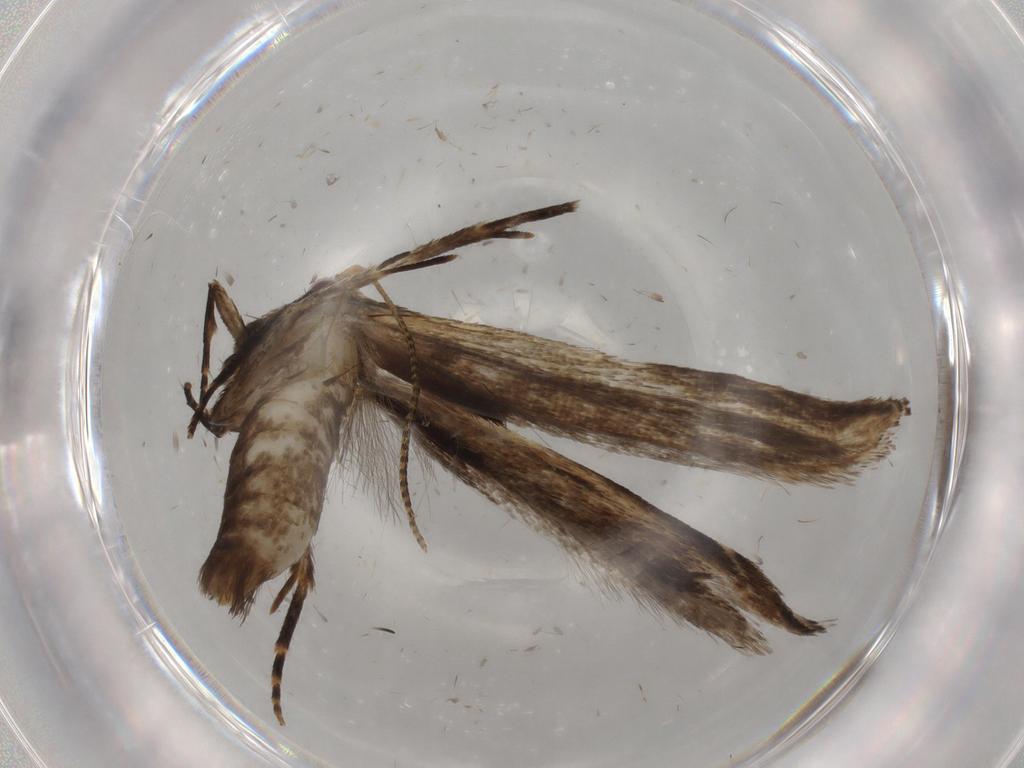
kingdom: Animalia
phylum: Arthropoda
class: Insecta
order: Lepidoptera
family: Gelechiidae
